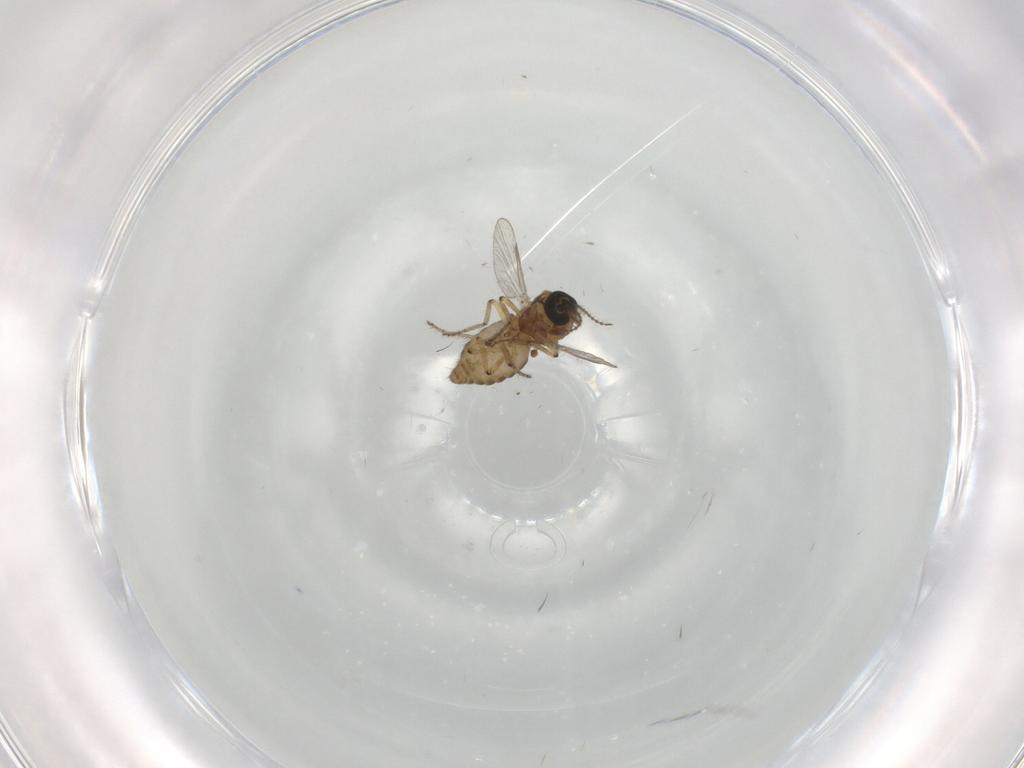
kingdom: Animalia
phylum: Arthropoda
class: Insecta
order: Diptera
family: Ceratopogonidae
